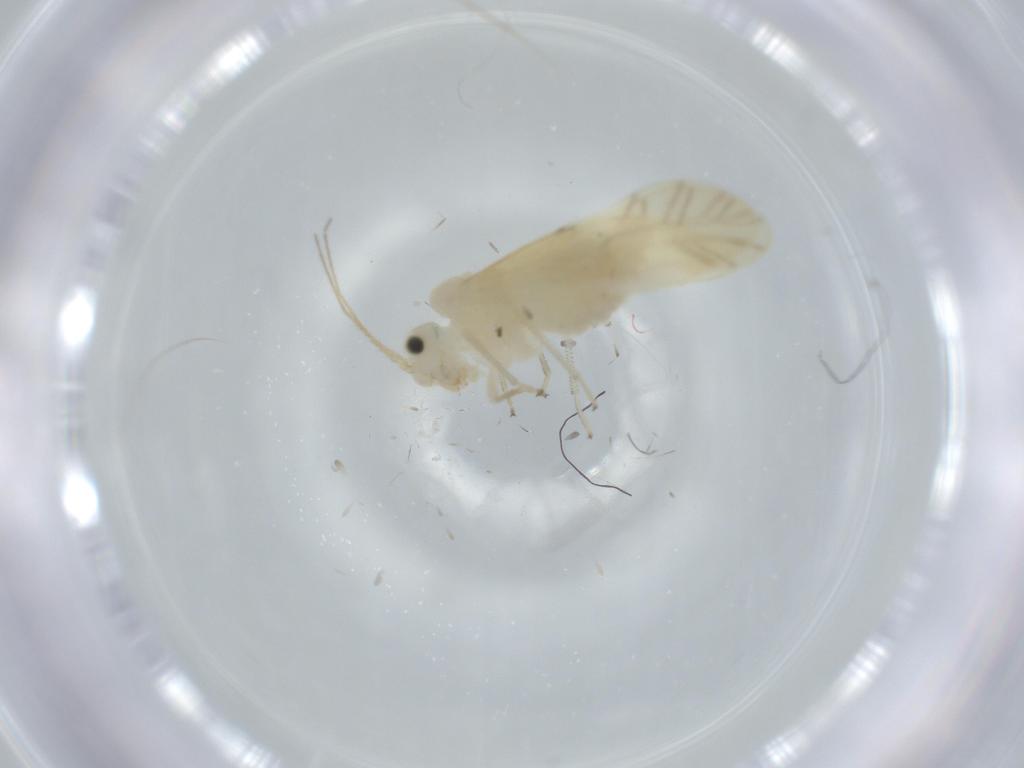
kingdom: Animalia
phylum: Arthropoda
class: Insecta
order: Psocodea
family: Caeciliusidae
